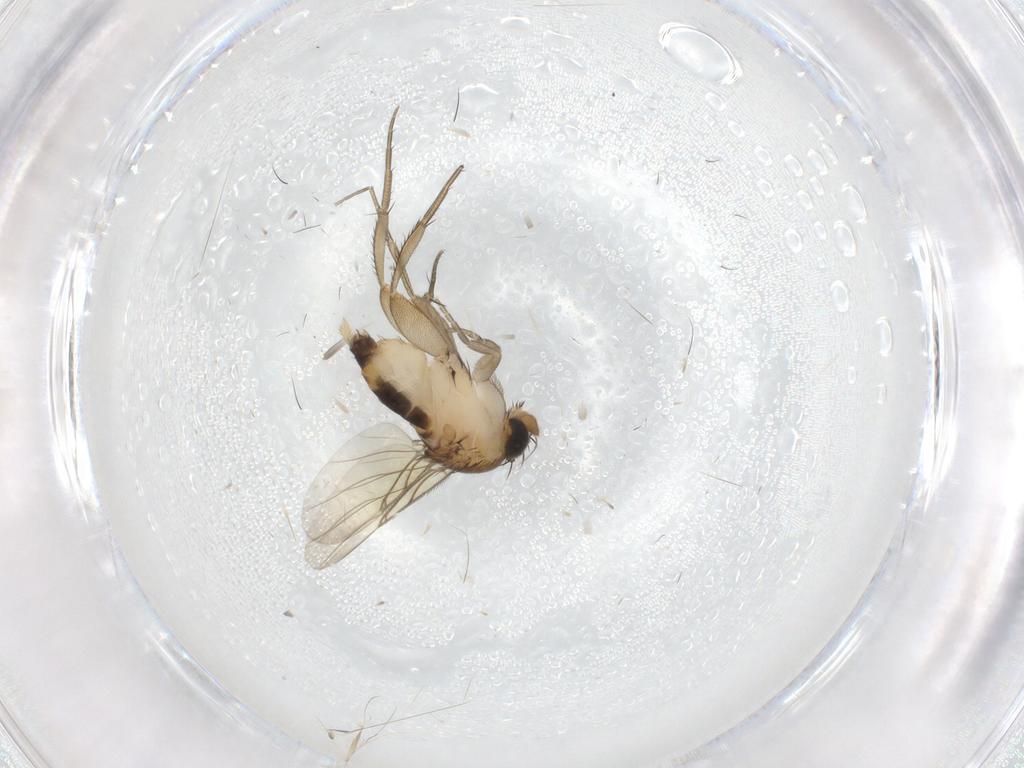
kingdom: Animalia
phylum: Arthropoda
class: Insecta
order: Diptera
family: Phoridae
